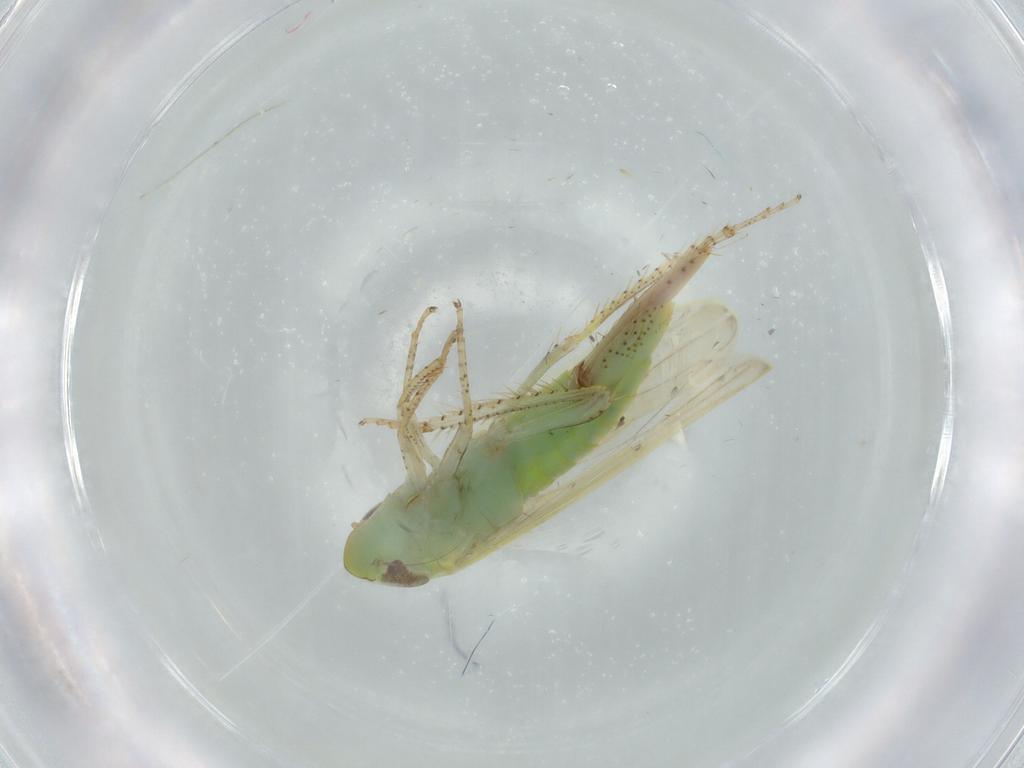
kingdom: Animalia
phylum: Arthropoda
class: Insecta
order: Hemiptera
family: Cicadellidae
